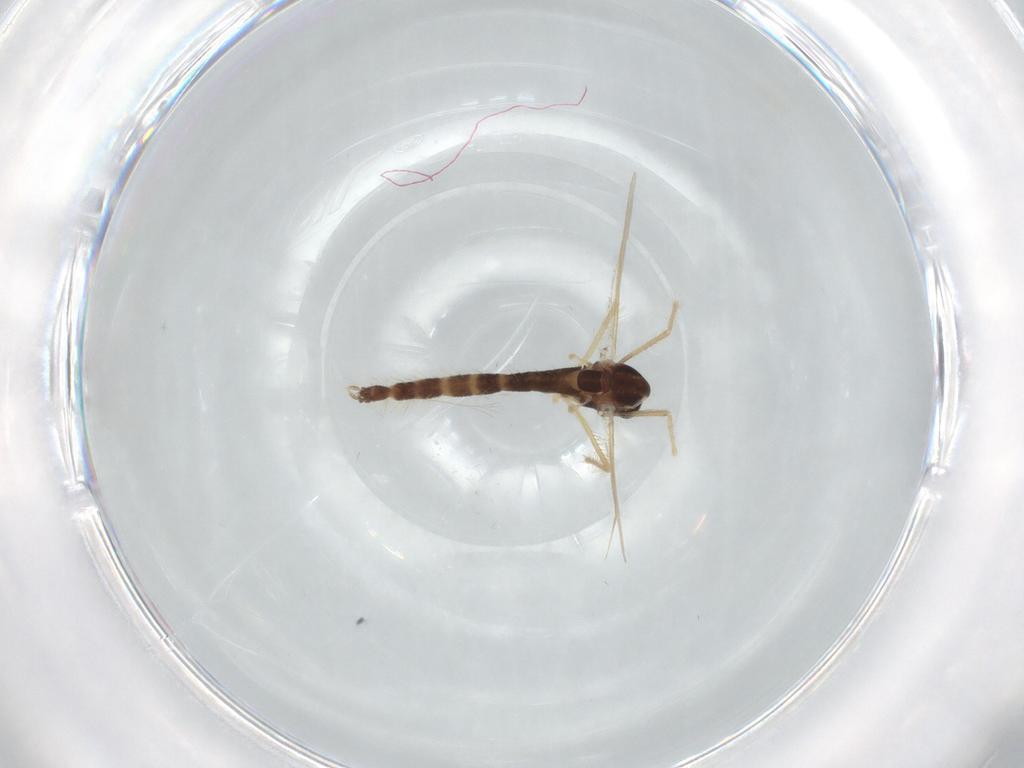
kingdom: Animalia
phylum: Arthropoda
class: Insecta
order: Diptera
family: Chironomidae
